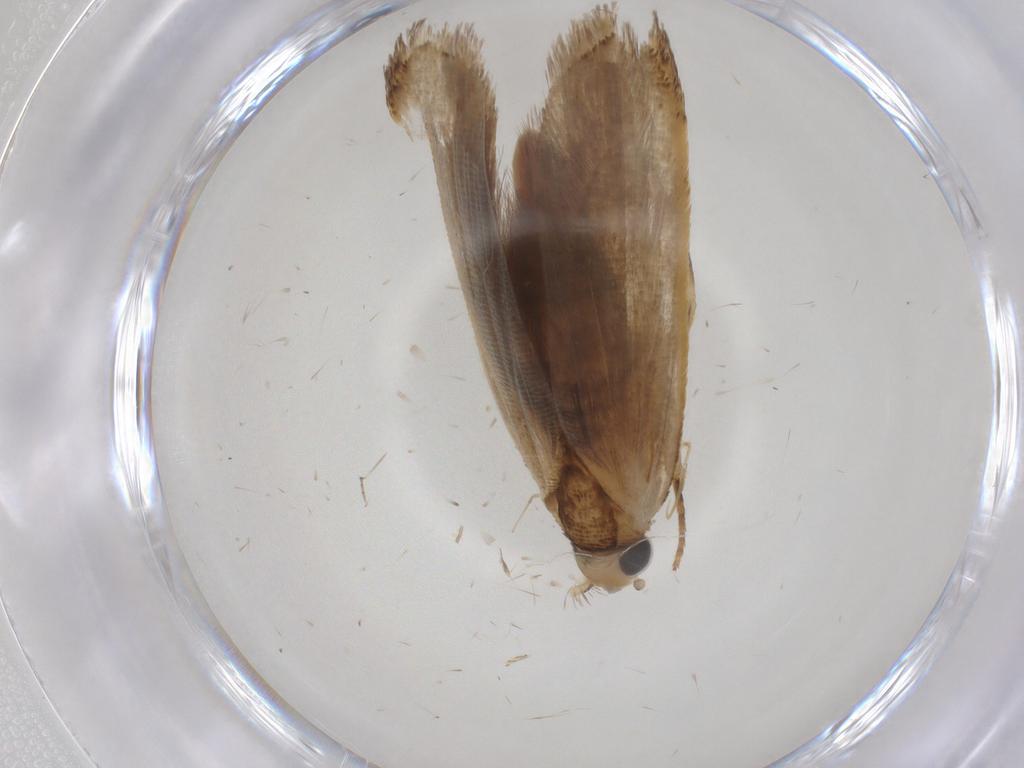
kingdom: Animalia
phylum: Arthropoda
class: Insecta
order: Lepidoptera
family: Gelechiidae
